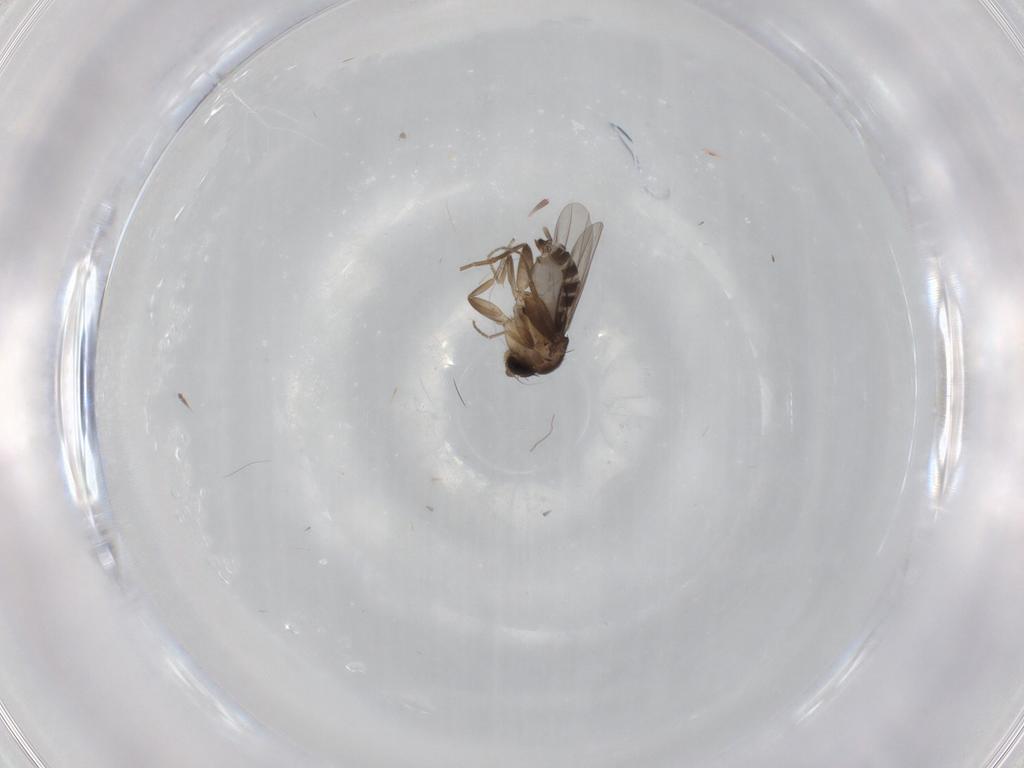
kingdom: Animalia
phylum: Arthropoda
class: Insecta
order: Diptera
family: Phoridae
